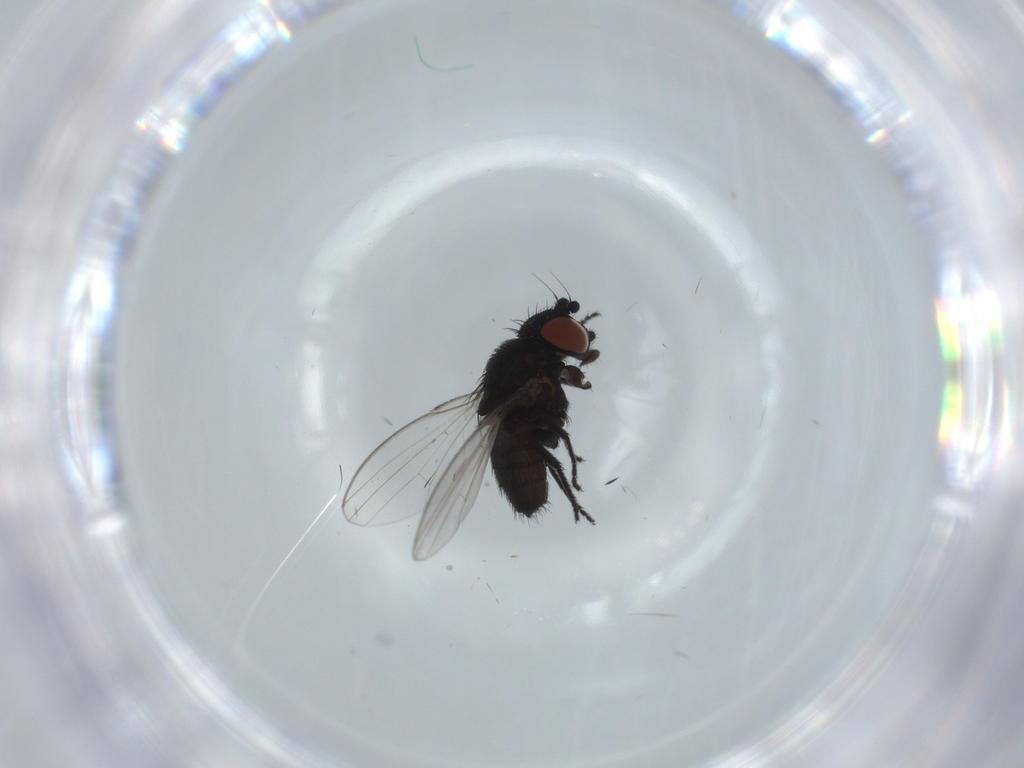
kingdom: Animalia
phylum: Arthropoda
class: Insecta
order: Diptera
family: Milichiidae
